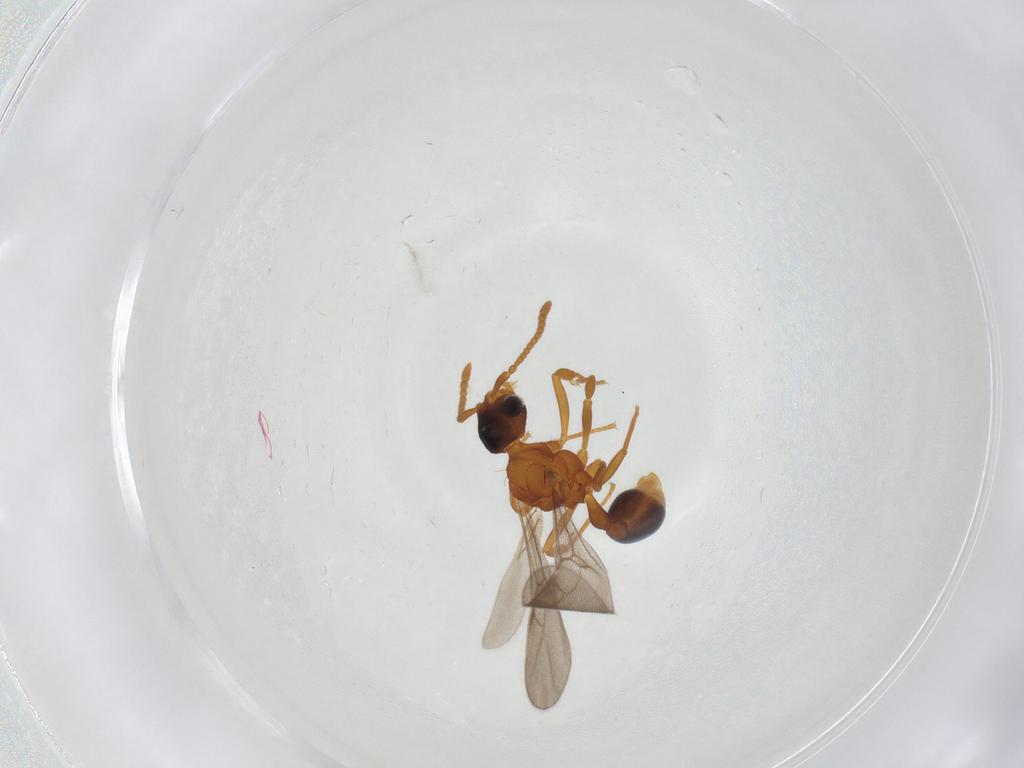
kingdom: Animalia
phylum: Arthropoda
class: Insecta
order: Hymenoptera
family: Formicidae
